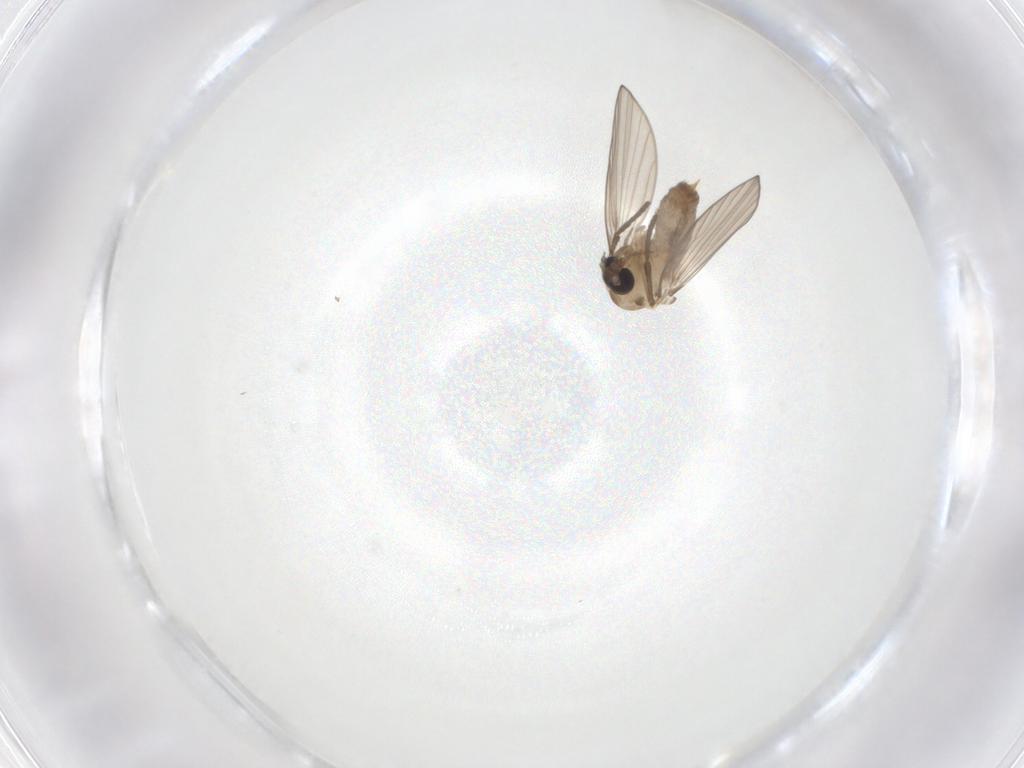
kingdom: Animalia
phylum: Arthropoda
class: Insecta
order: Diptera
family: Psychodidae
